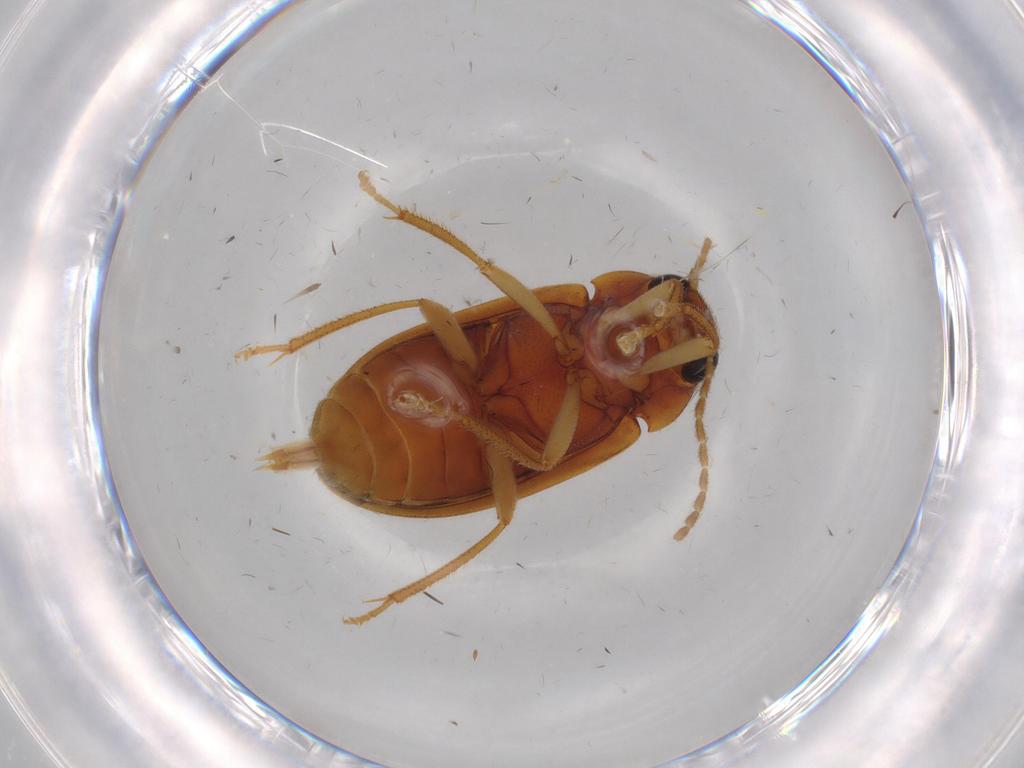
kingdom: Animalia
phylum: Arthropoda
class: Insecta
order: Coleoptera
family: Ptilodactylidae
